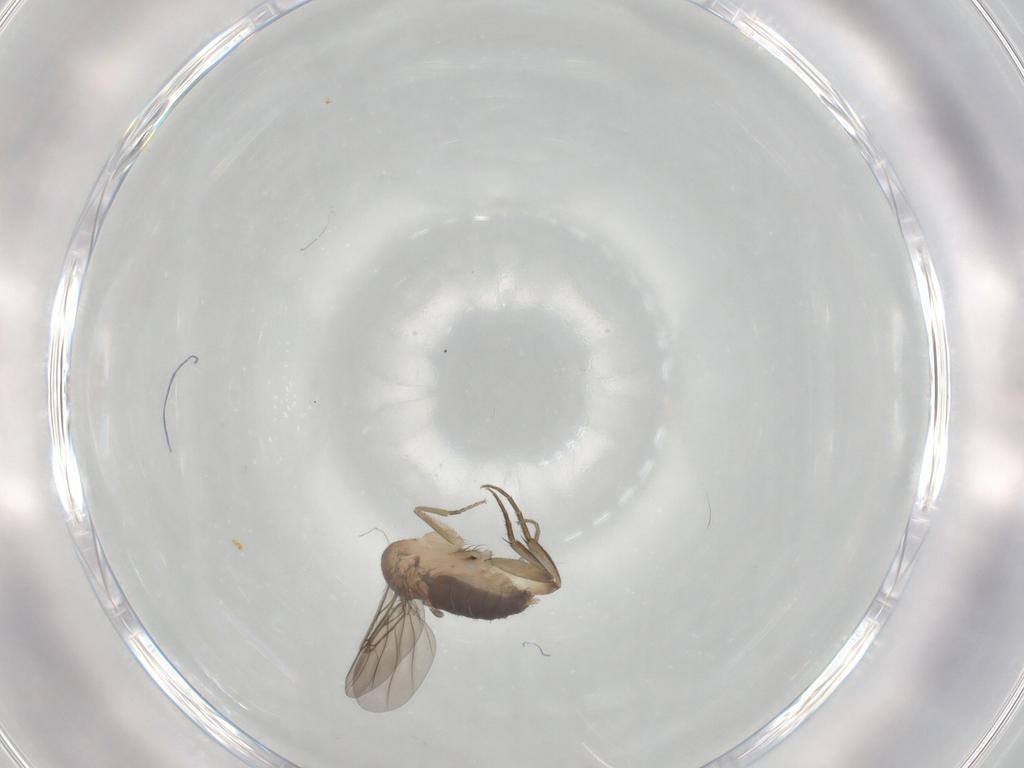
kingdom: Animalia
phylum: Arthropoda
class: Insecta
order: Diptera
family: Phoridae
